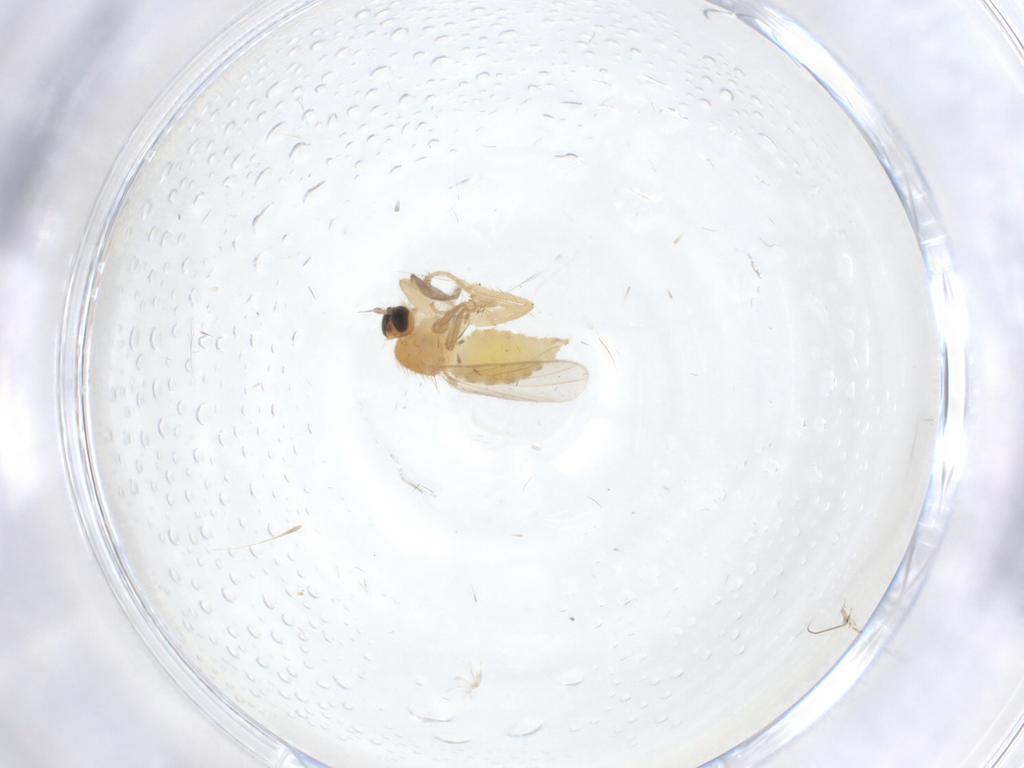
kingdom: Animalia
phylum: Arthropoda
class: Insecta
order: Diptera
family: Hybotidae
